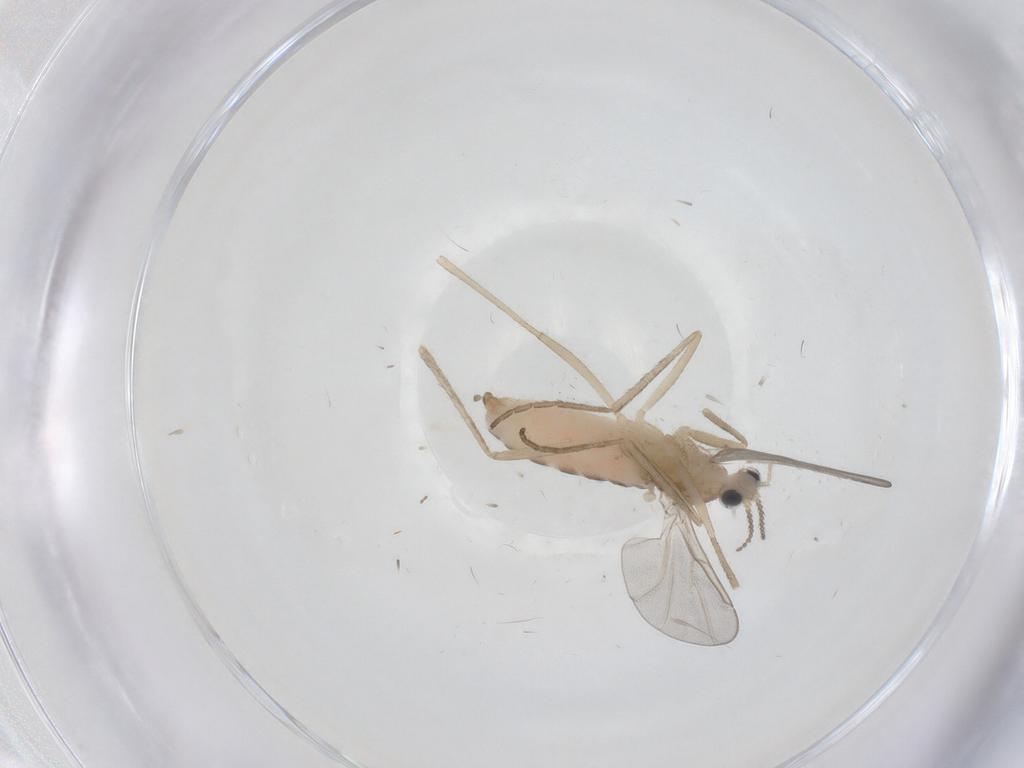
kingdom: Animalia
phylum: Arthropoda
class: Insecta
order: Diptera
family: Cecidomyiidae
